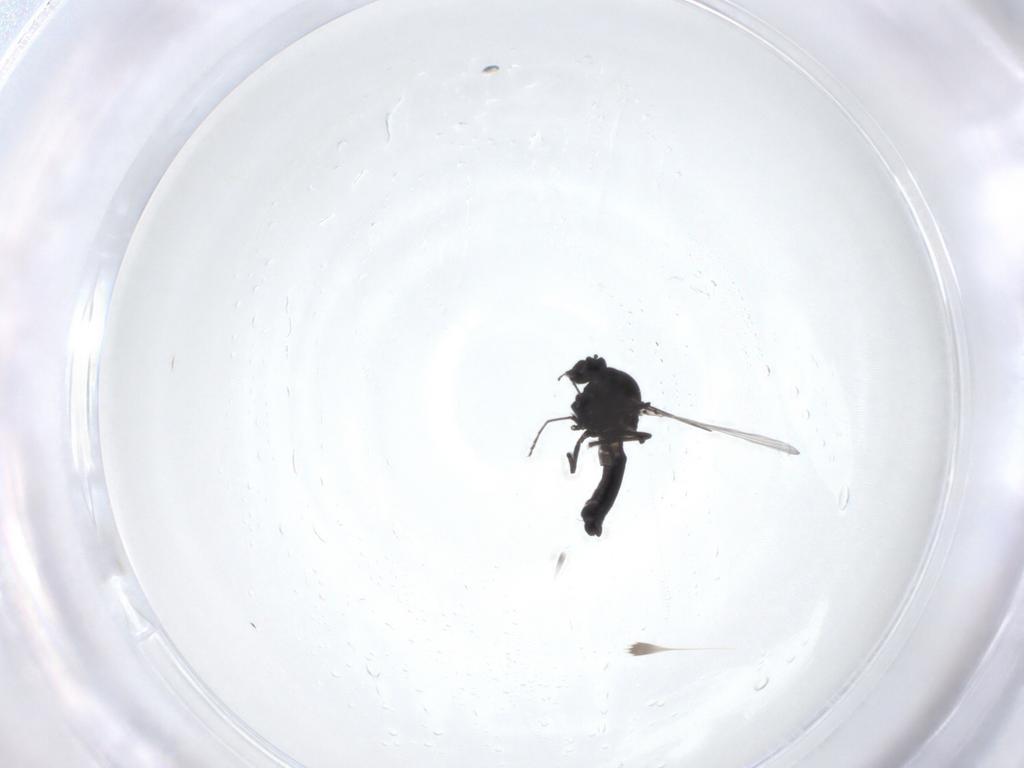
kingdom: Animalia
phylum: Arthropoda
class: Insecta
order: Diptera
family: Ceratopogonidae
